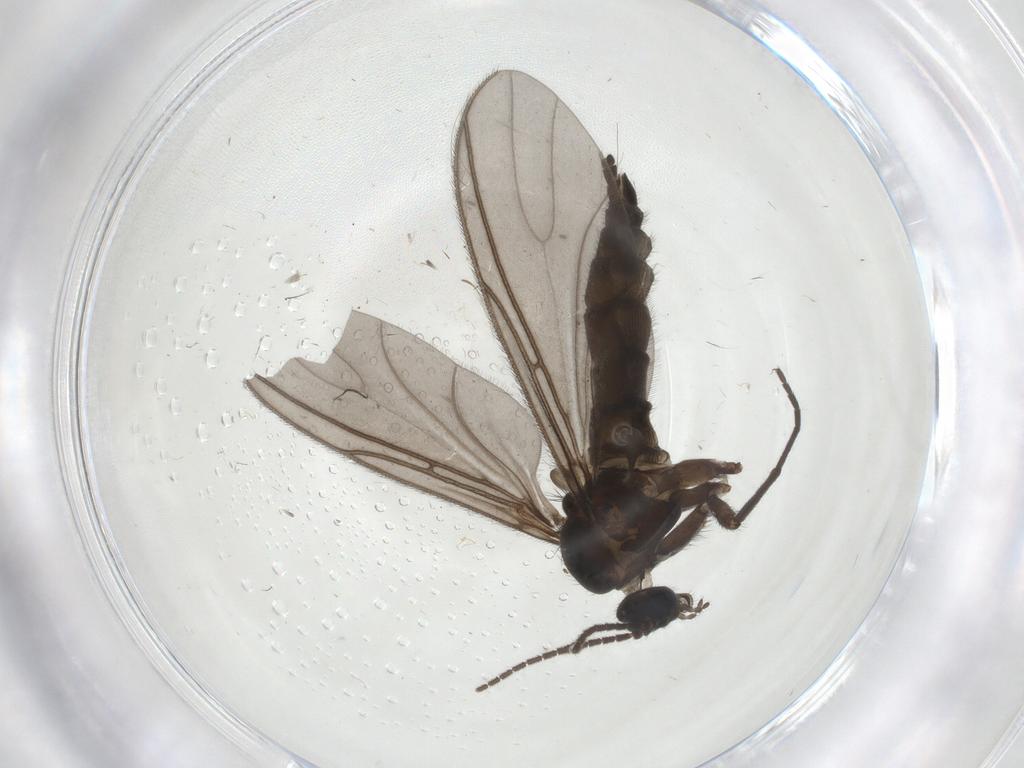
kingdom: Animalia
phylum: Arthropoda
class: Insecta
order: Diptera
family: Sciaridae
